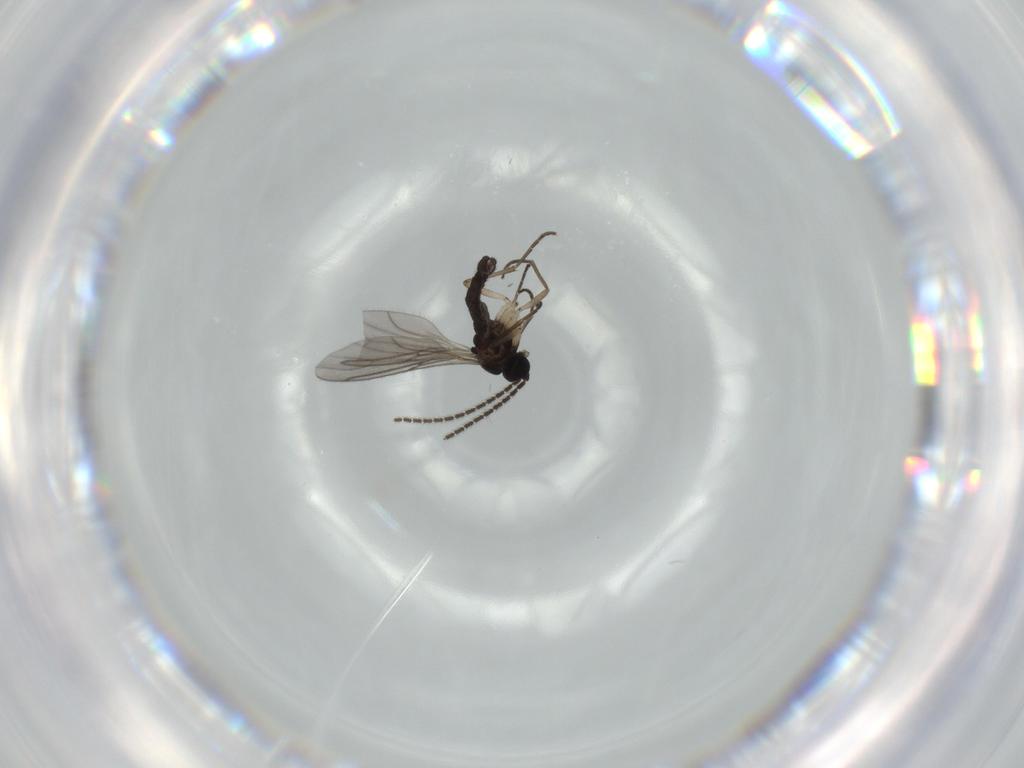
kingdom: Animalia
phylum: Arthropoda
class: Insecta
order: Diptera
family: Sciaridae
